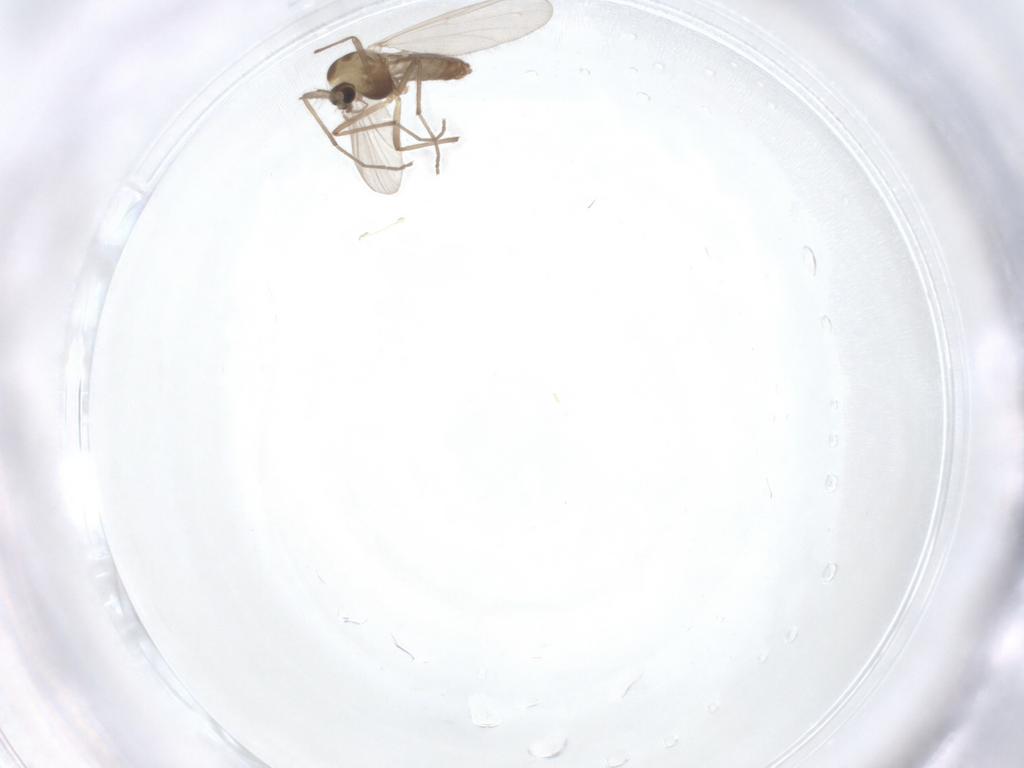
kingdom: Animalia
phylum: Arthropoda
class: Insecta
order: Diptera
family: Chironomidae
